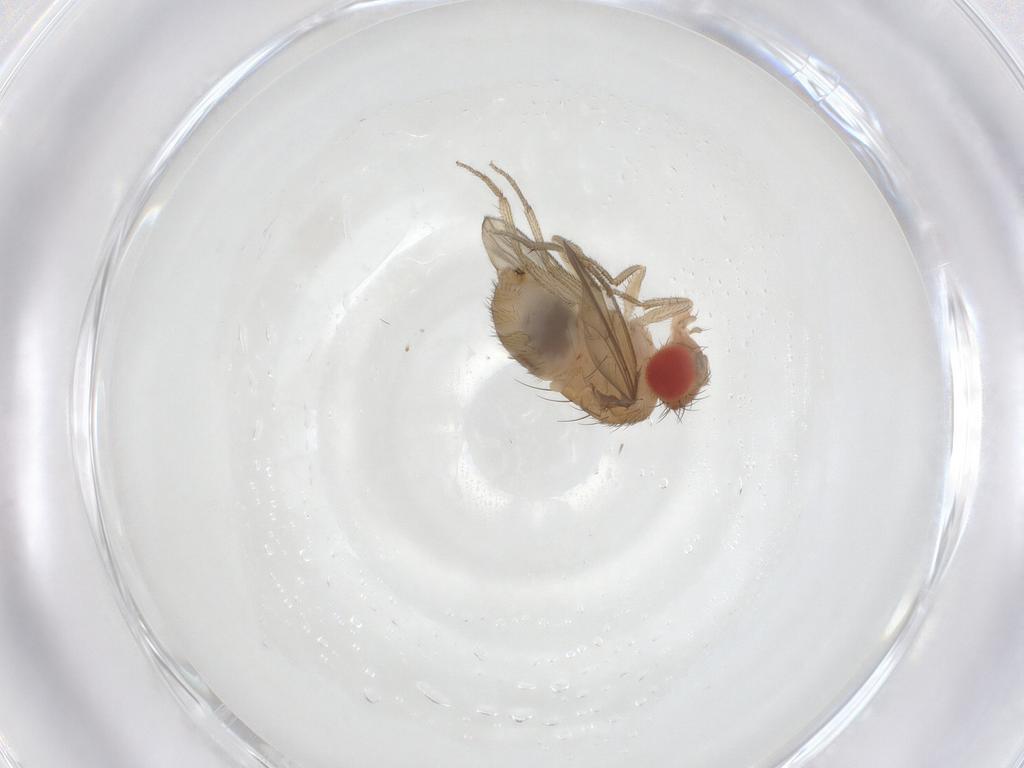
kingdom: Animalia
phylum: Arthropoda
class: Insecta
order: Diptera
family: Drosophilidae
